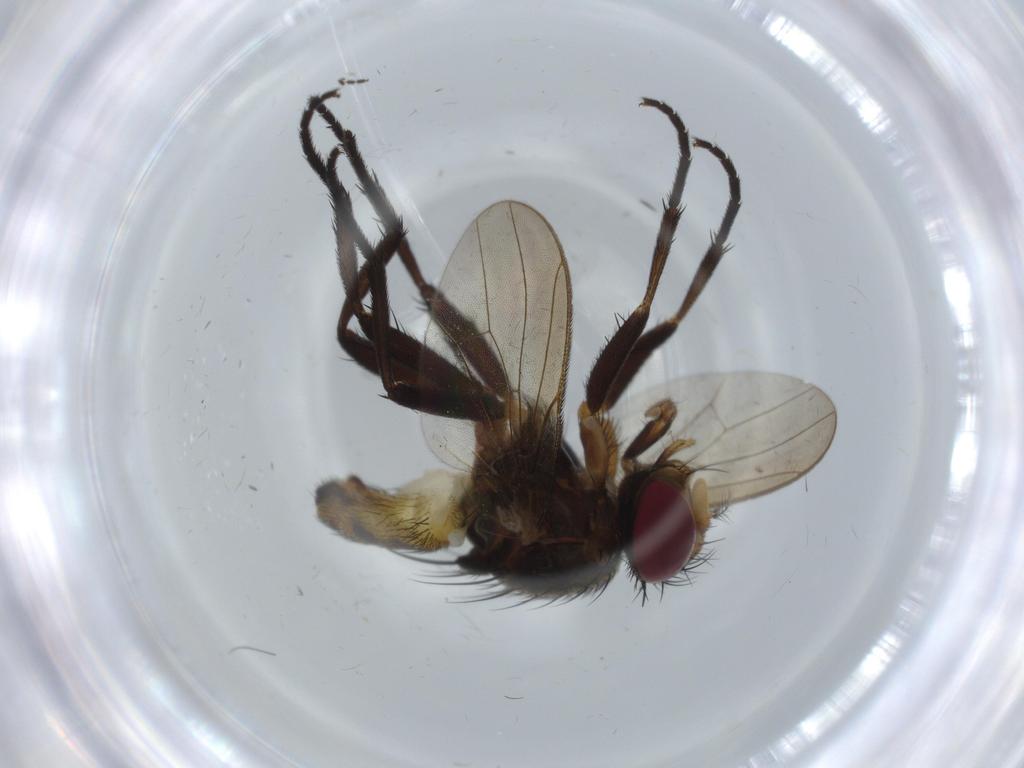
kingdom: Animalia
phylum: Arthropoda
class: Insecta
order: Diptera
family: Anthomyiidae
